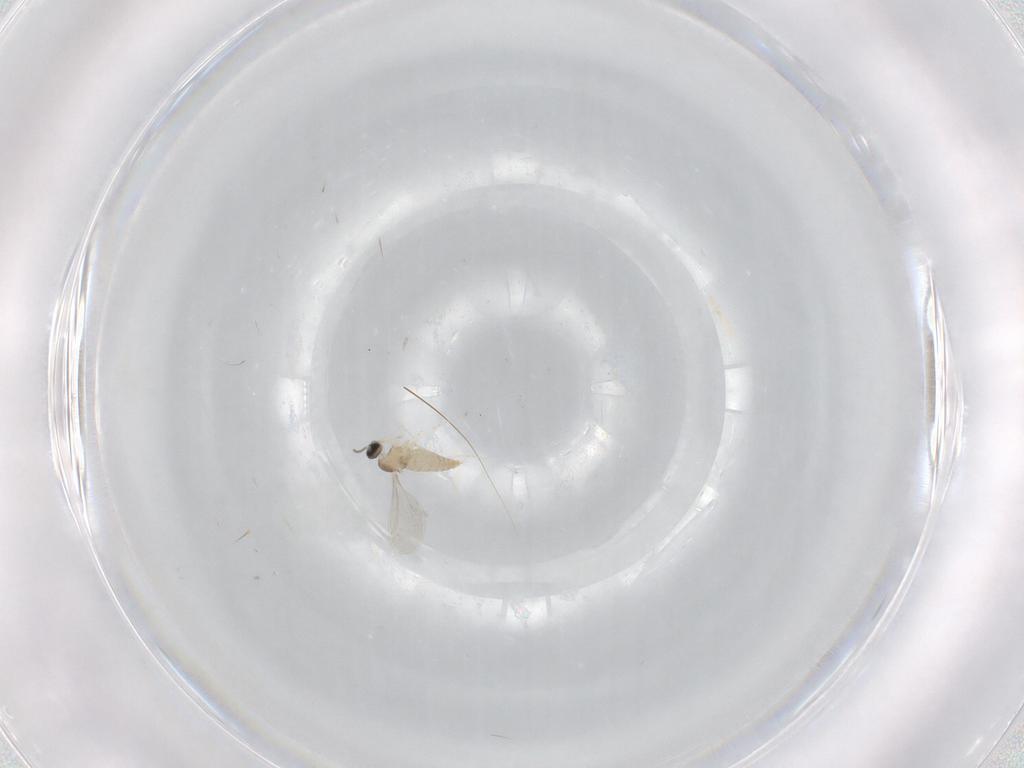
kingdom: Animalia
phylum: Arthropoda
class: Insecta
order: Diptera
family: Cecidomyiidae
